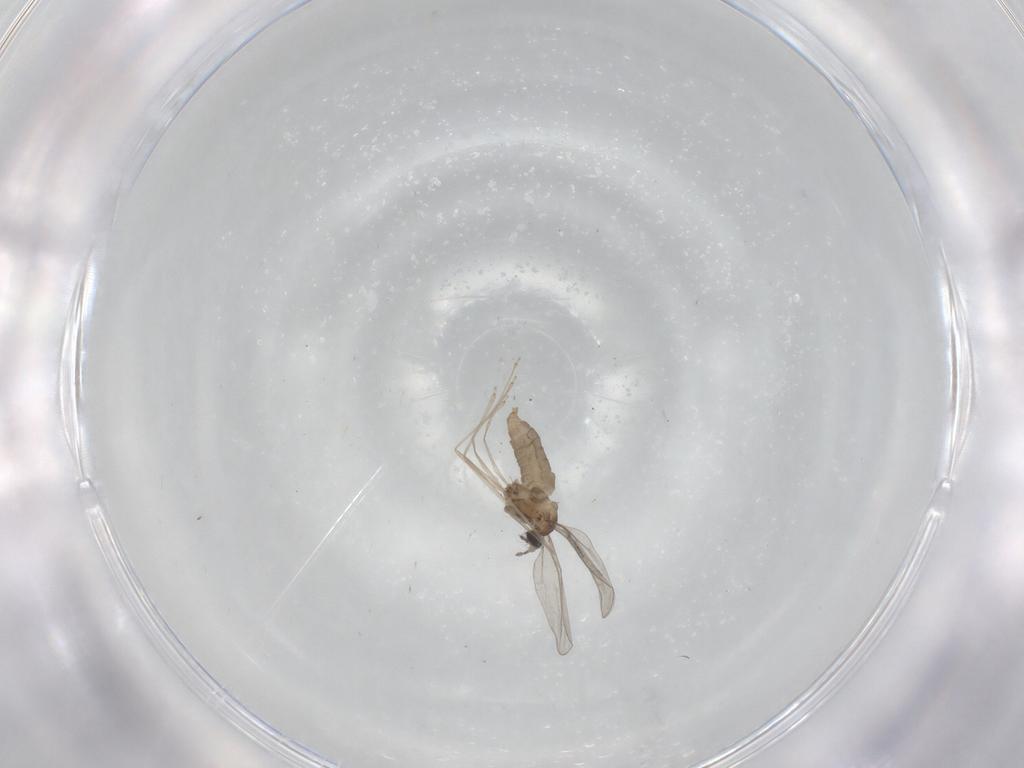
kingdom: Animalia
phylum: Arthropoda
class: Insecta
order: Diptera
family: Cecidomyiidae
